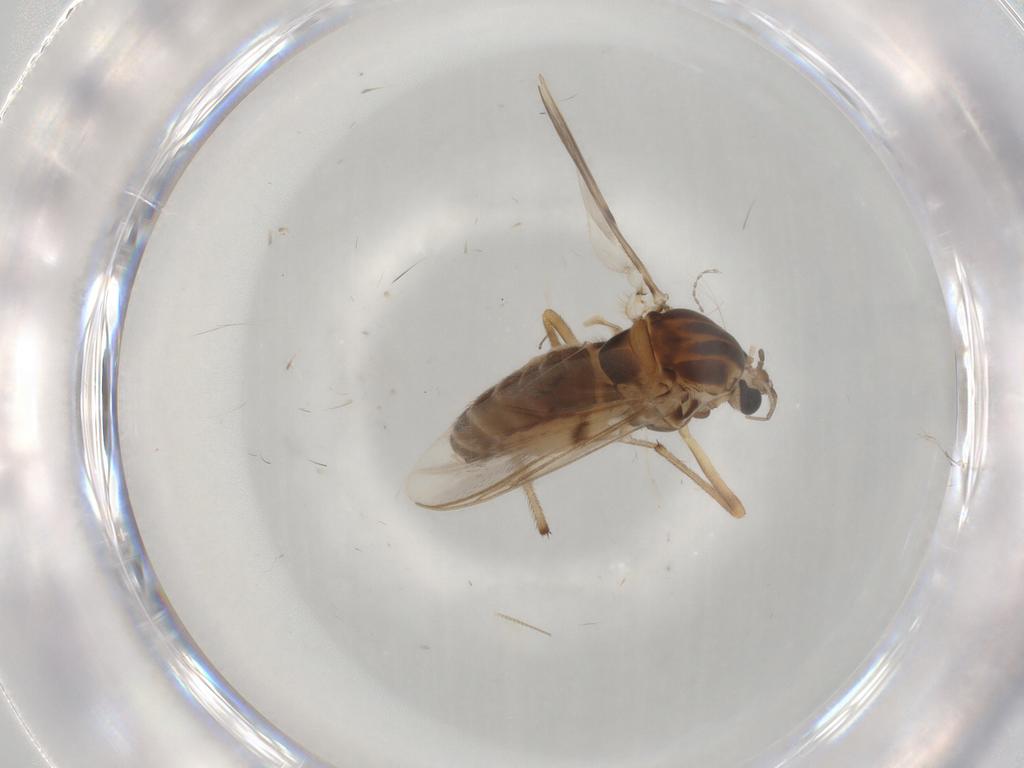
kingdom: Animalia
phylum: Arthropoda
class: Insecta
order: Diptera
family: Chironomidae
